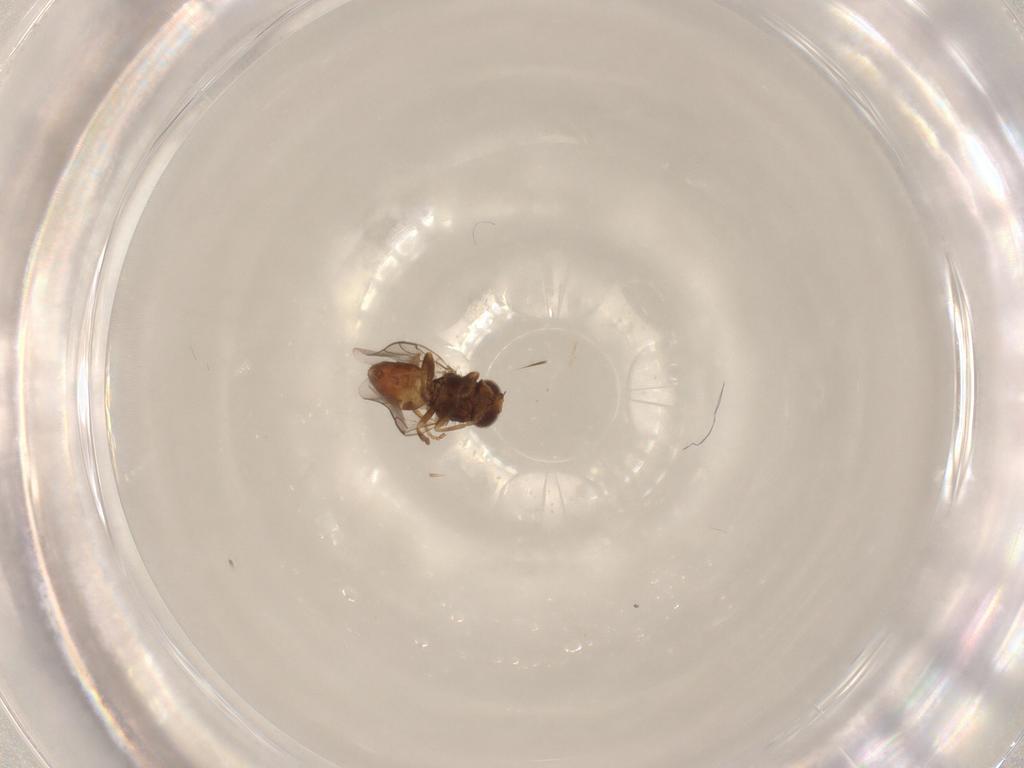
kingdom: Animalia
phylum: Arthropoda
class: Insecta
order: Diptera
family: Chloropidae
